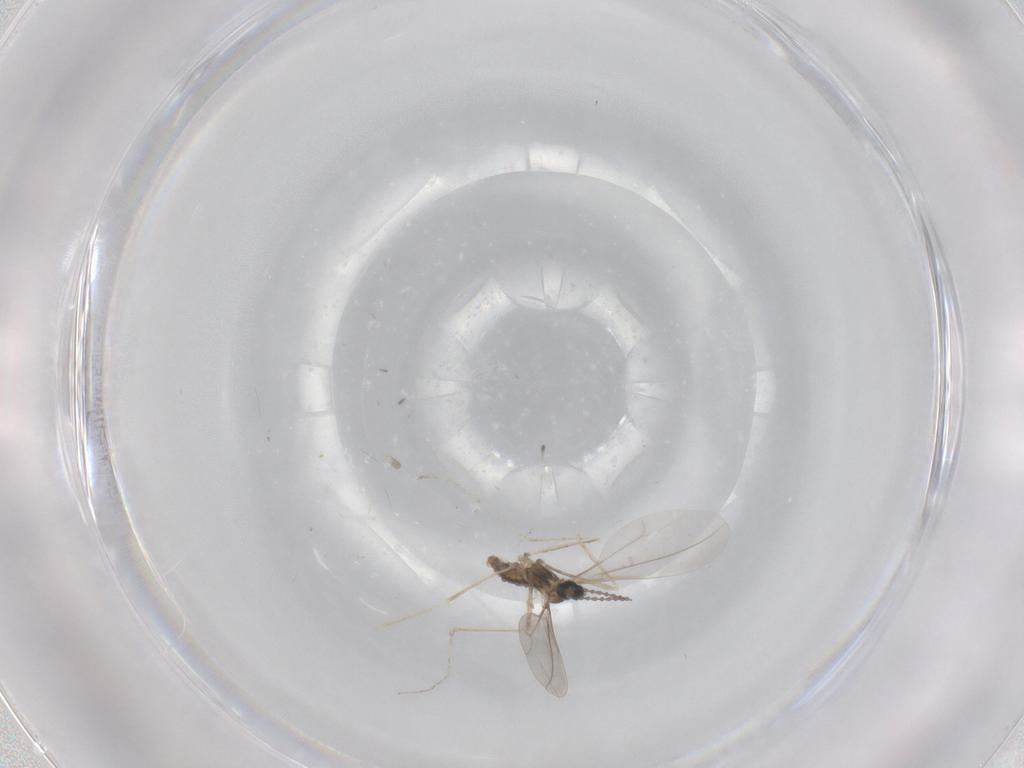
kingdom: Animalia
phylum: Arthropoda
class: Insecta
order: Diptera
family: Cecidomyiidae
